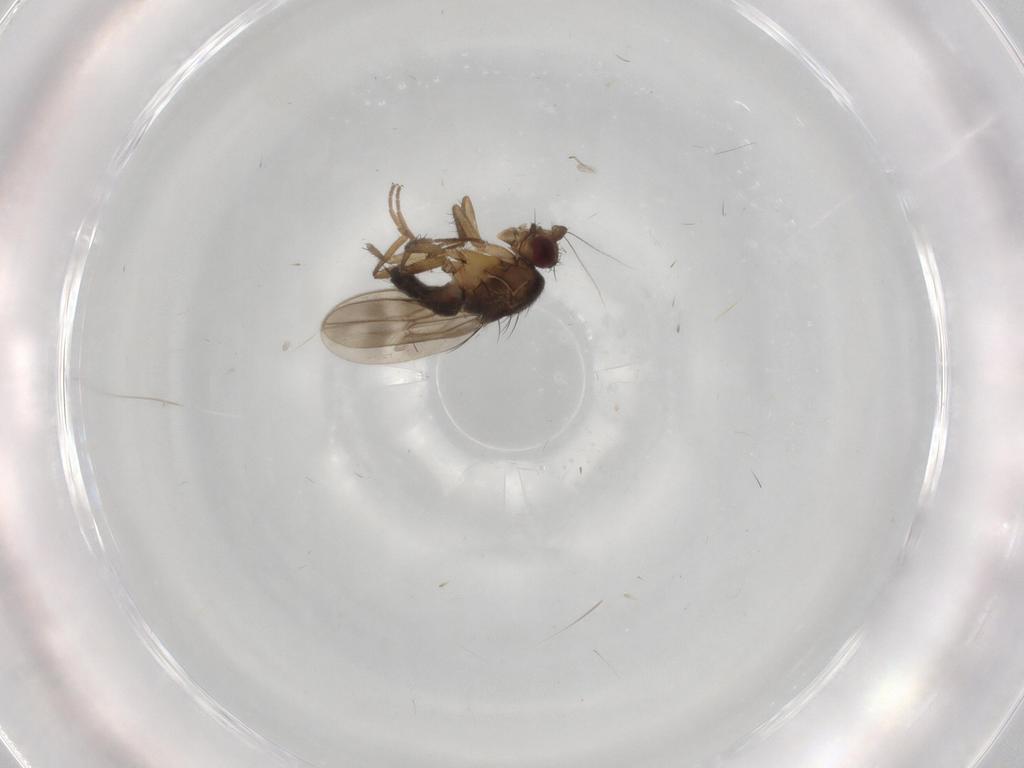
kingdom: Animalia
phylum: Arthropoda
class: Insecta
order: Diptera
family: Sphaeroceridae
